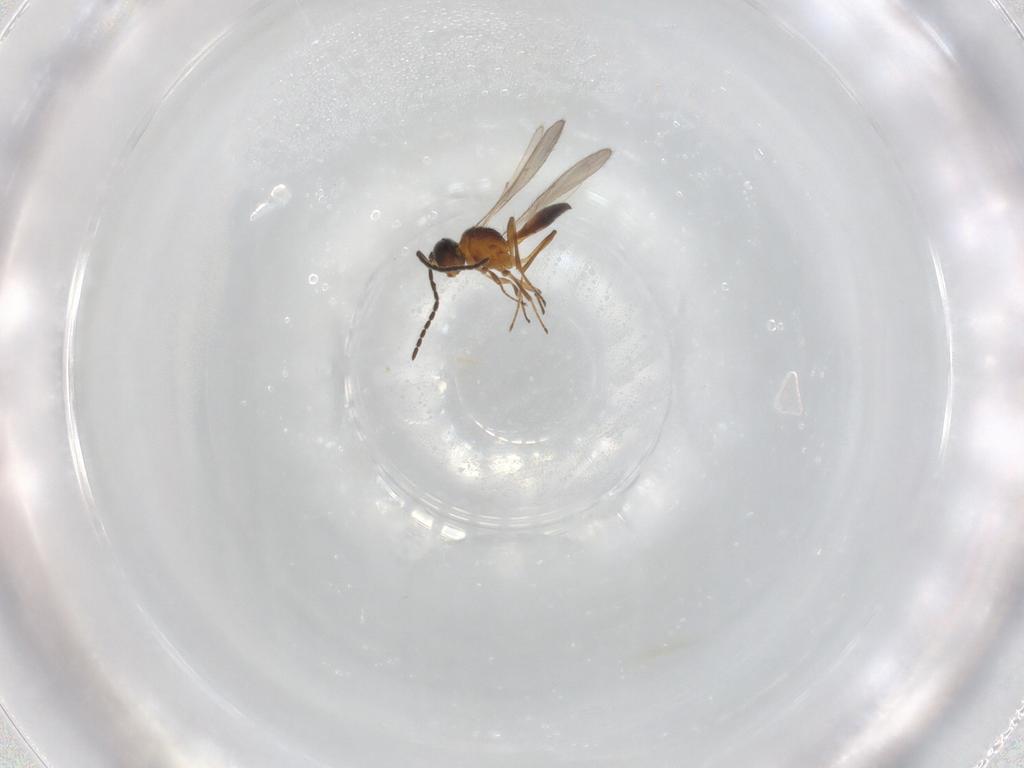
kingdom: Animalia
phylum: Arthropoda
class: Insecta
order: Hymenoptera
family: Scelionidae
